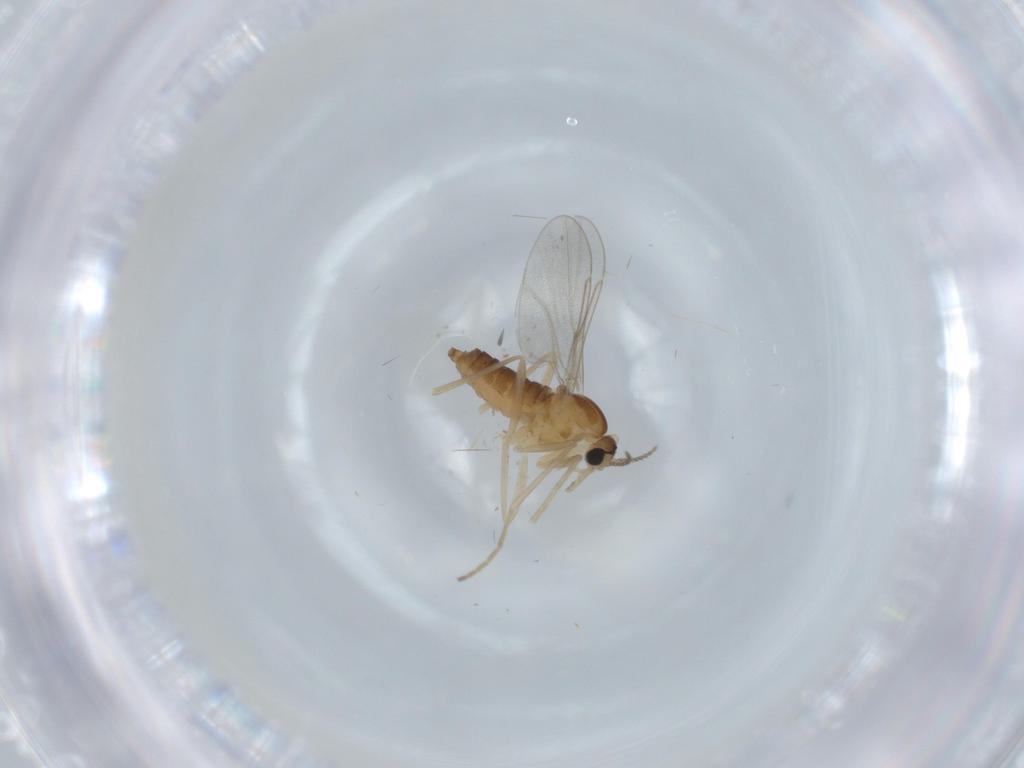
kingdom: Animalia
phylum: Arthropoda
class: Insecta
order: Diptera
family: Cecidomyiidae
